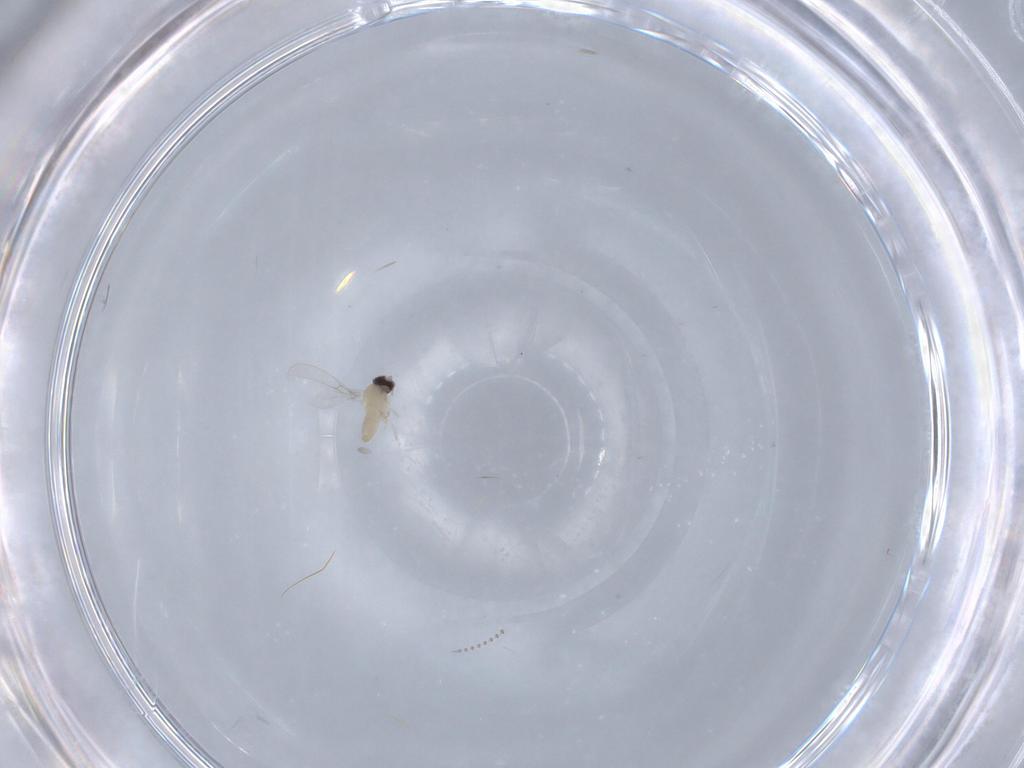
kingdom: Animalia
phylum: Arthropoda
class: Insecta
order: Diptera
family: Cecidomyiidae
